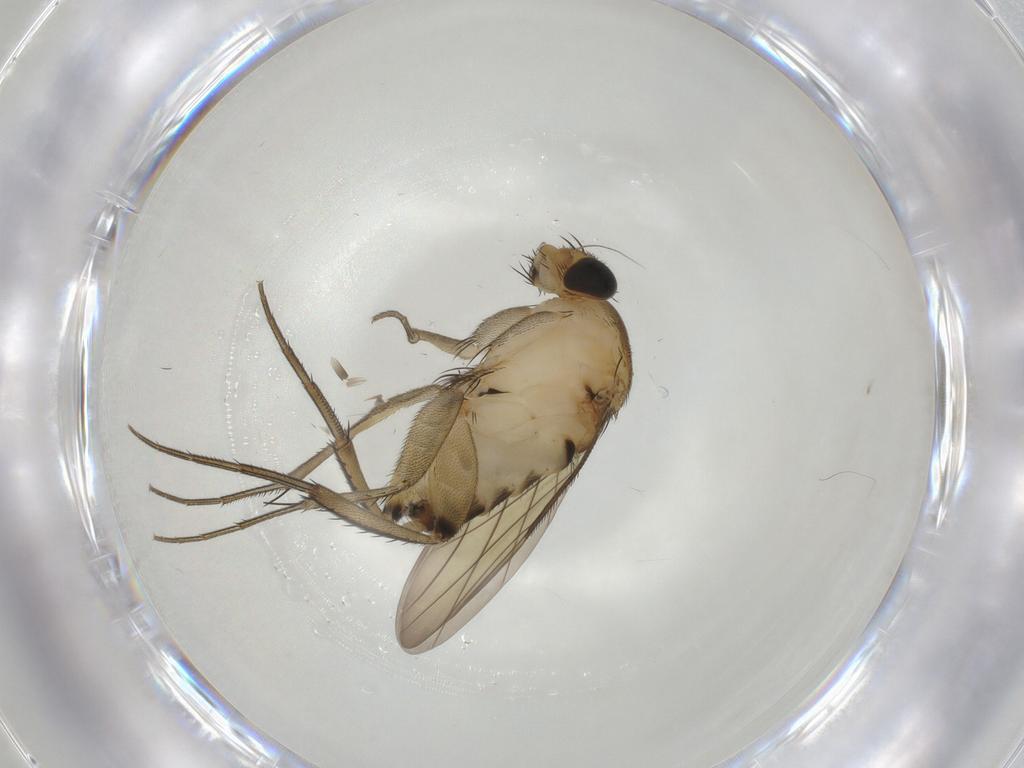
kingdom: Animalia
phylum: Arthropoda
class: Insecta
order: Diptera
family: Phoridae
